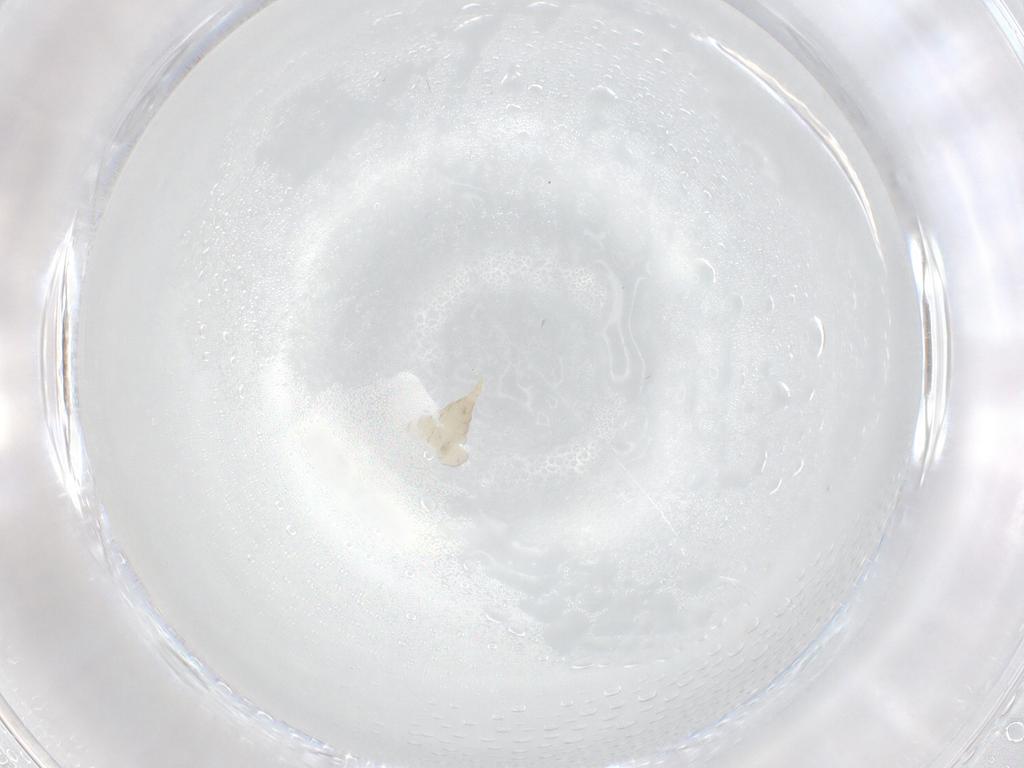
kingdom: Animalia
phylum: Arthropoda
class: Insecta
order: Diptera
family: Cecidomyiidae
